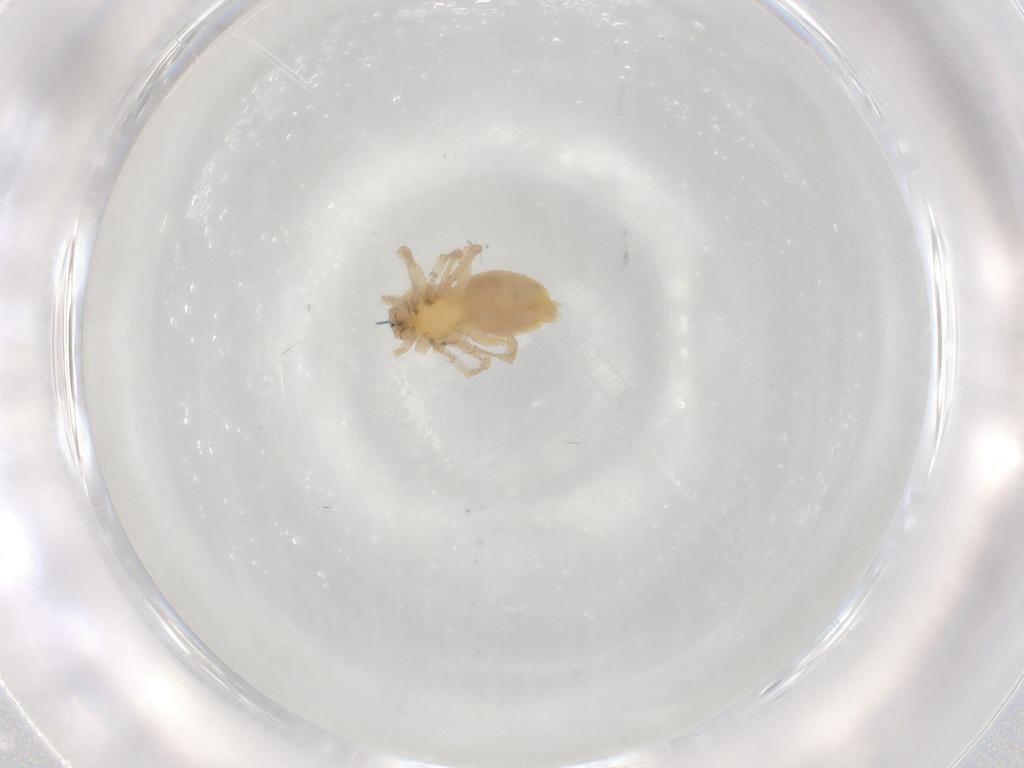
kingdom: Animalia
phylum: Arthropoda
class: Arachnida
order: Araneae
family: Anyphaenidae
